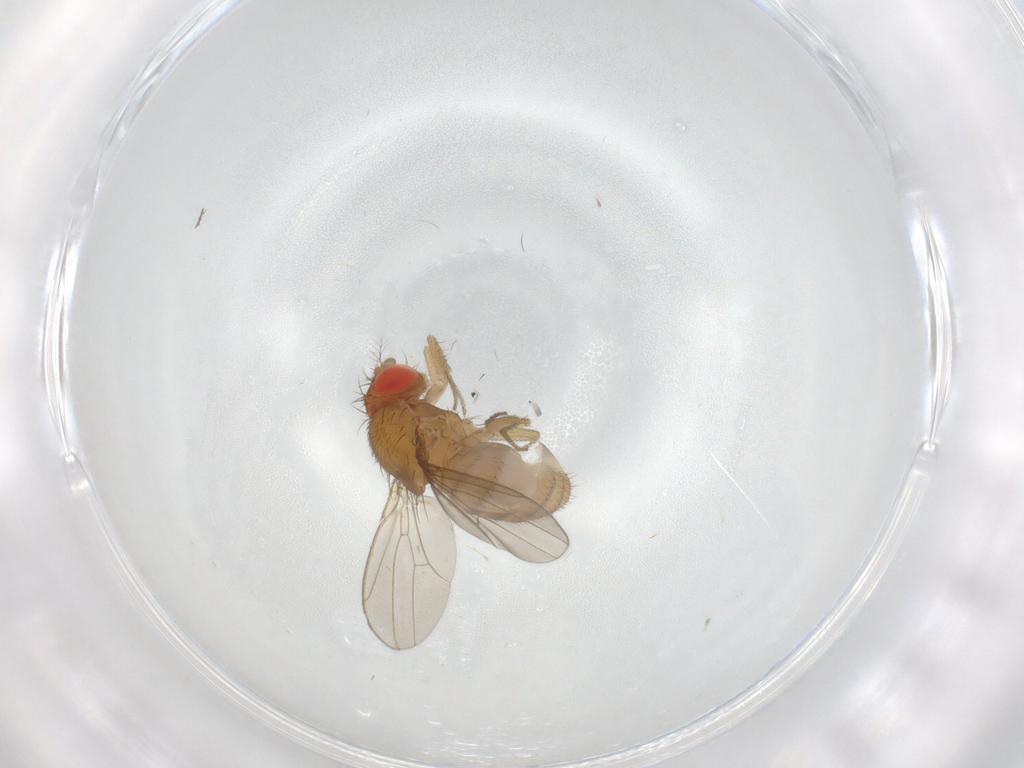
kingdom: Animalia
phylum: Arthropoda
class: Insecta
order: Diptera
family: Drosophilidae
